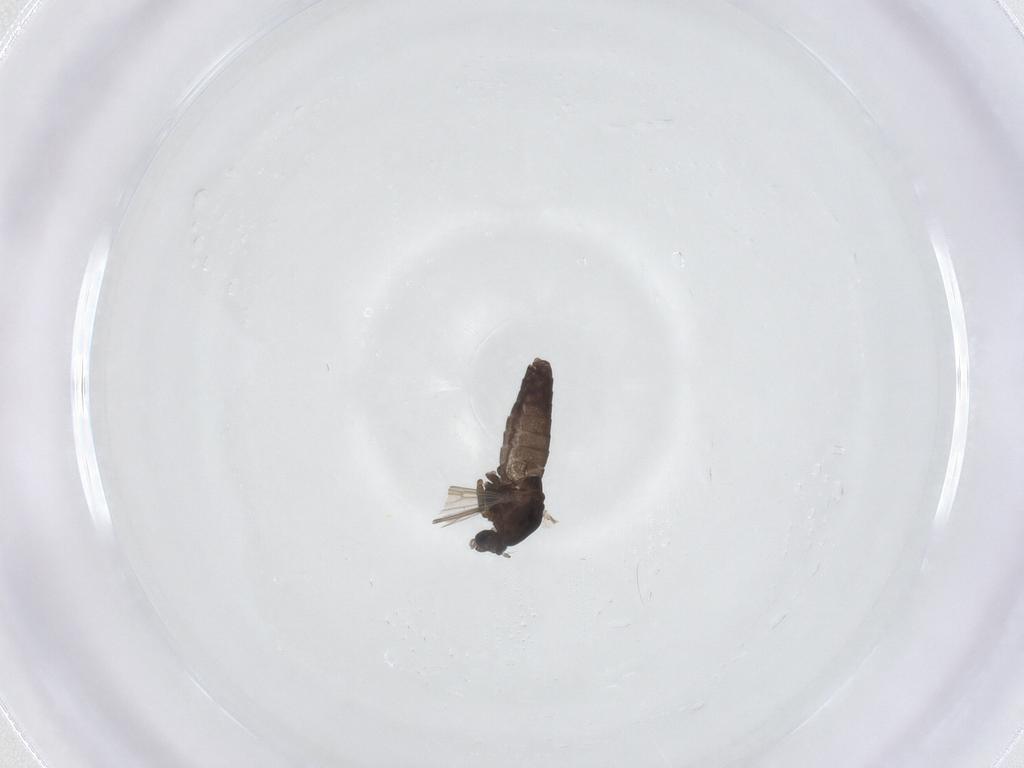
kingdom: Animalia
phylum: Arthropoda
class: Insecta
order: Diptera
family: Chironomidae
